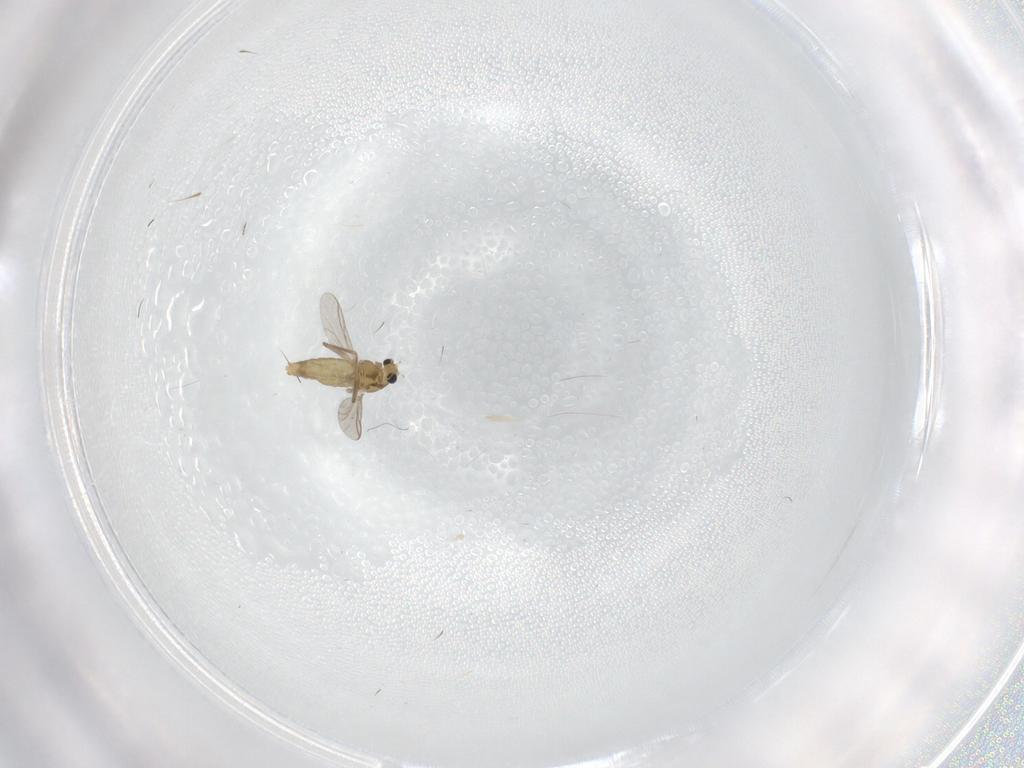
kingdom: Animalia
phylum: Arthropoda
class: Insecta
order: Diptera
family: Chironomidae
